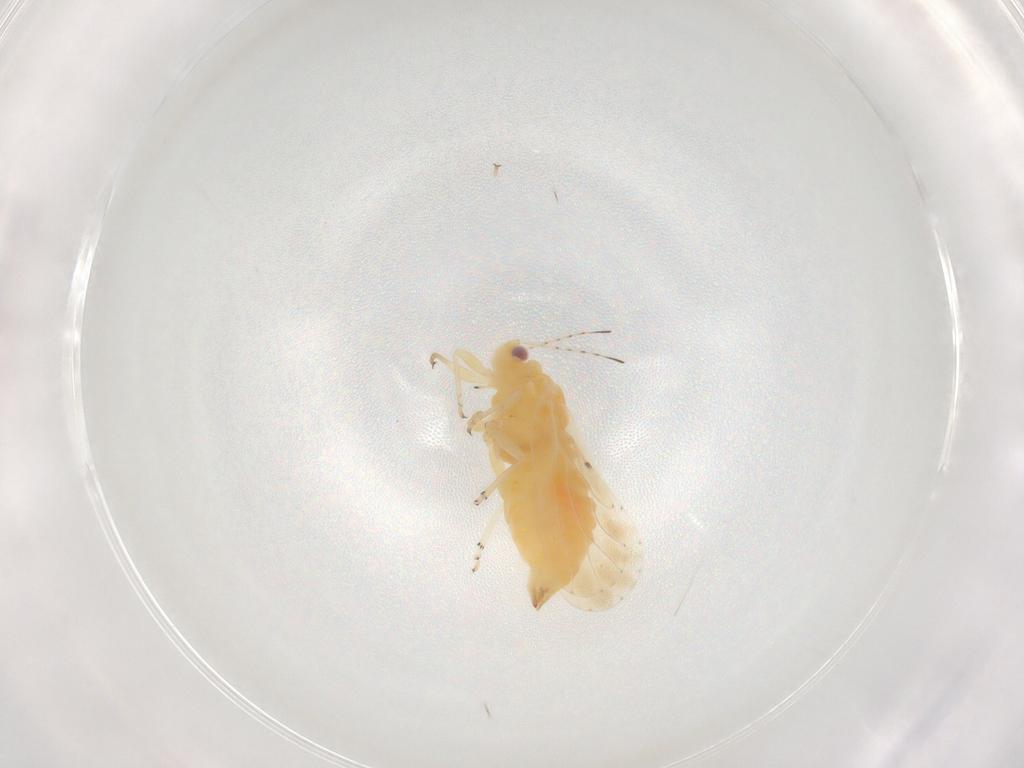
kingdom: Animalia
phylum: Arthropoda
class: Insecta
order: Hemiptera
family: Psyllidae
